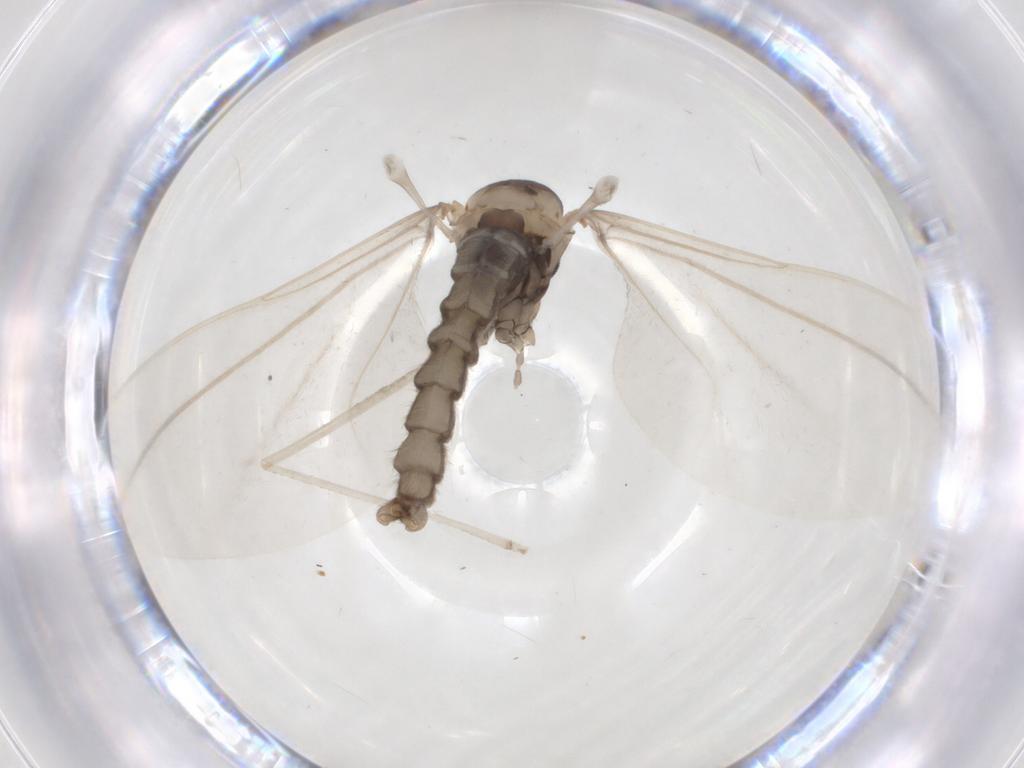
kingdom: Animalia
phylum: Arthropoda
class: Insecta
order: Diptera
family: Cecidomyiidae
